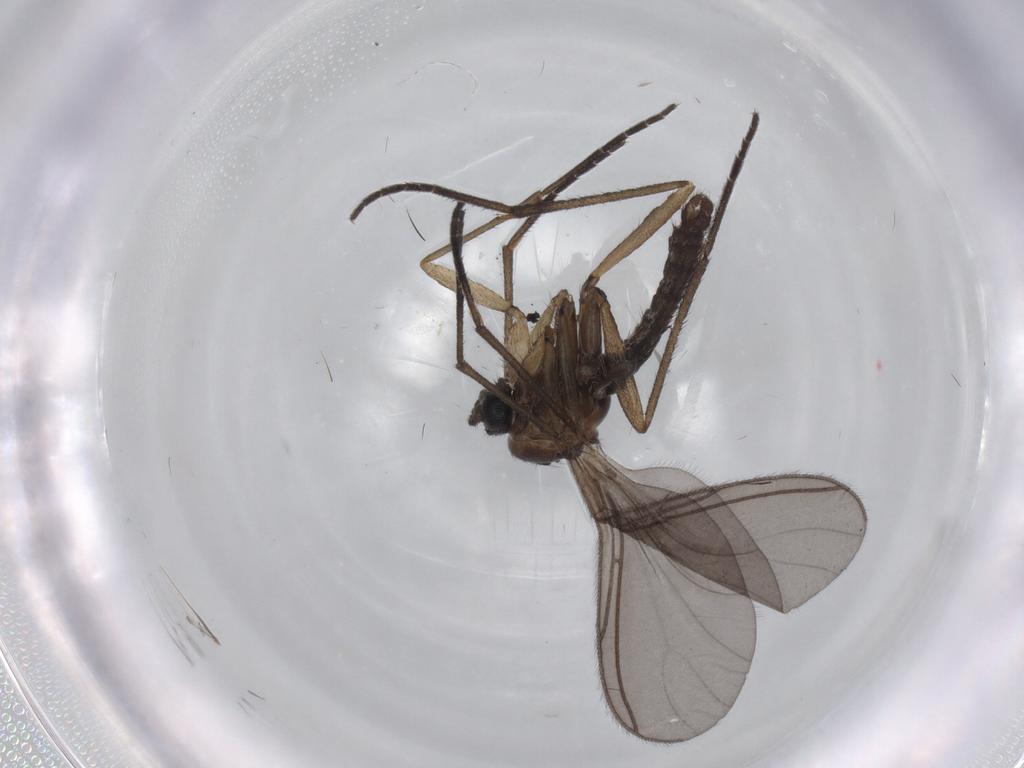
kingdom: Animalia
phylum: Arthropoda
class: Insecta
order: Diptera
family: Sciaridae
